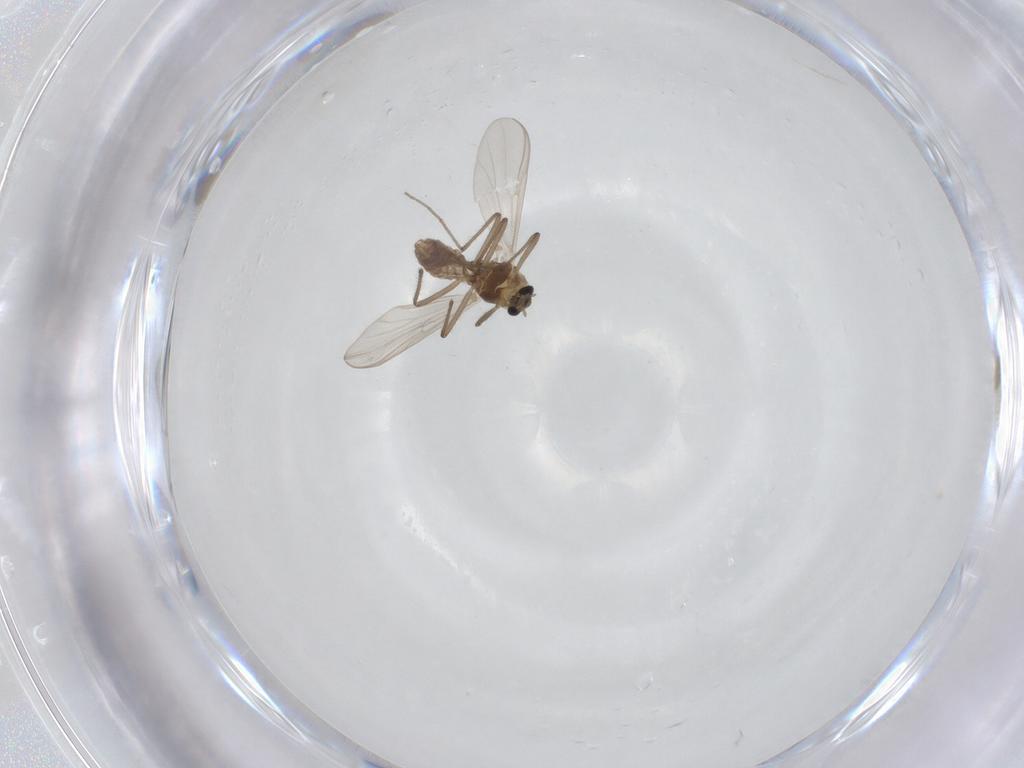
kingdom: Animalia
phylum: Arthropoda
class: Insecta
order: Diptera
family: Chironomidae
